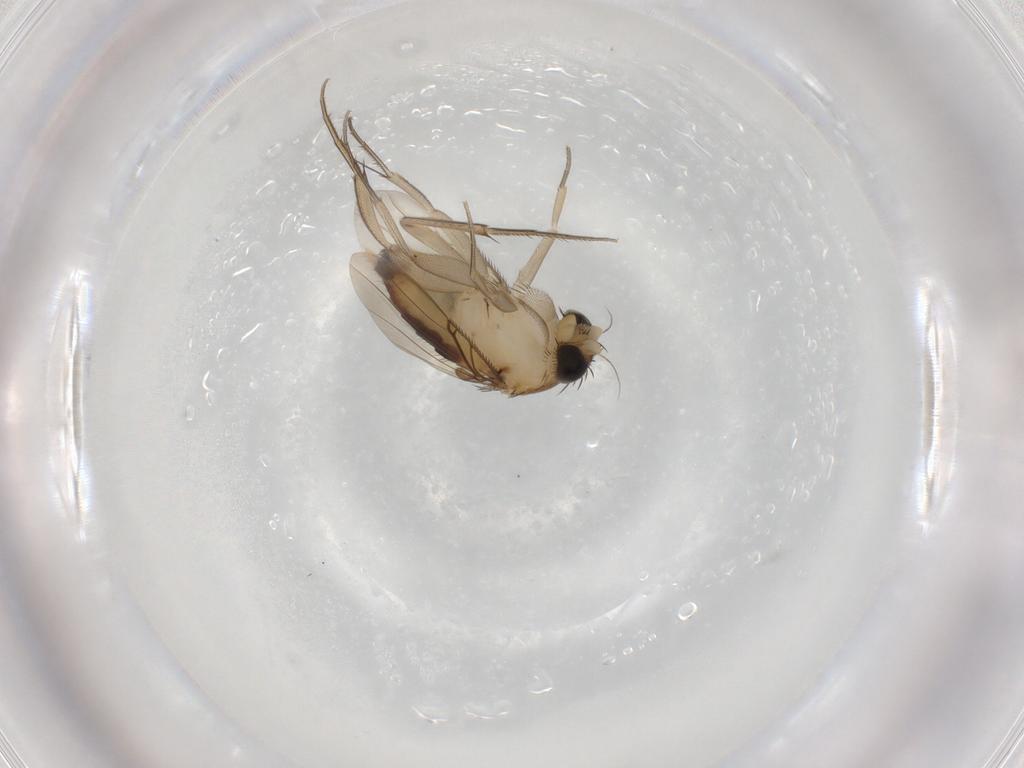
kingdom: Animalia
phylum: Arthropoda
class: Insecta
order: Diptera
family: Phoridae
